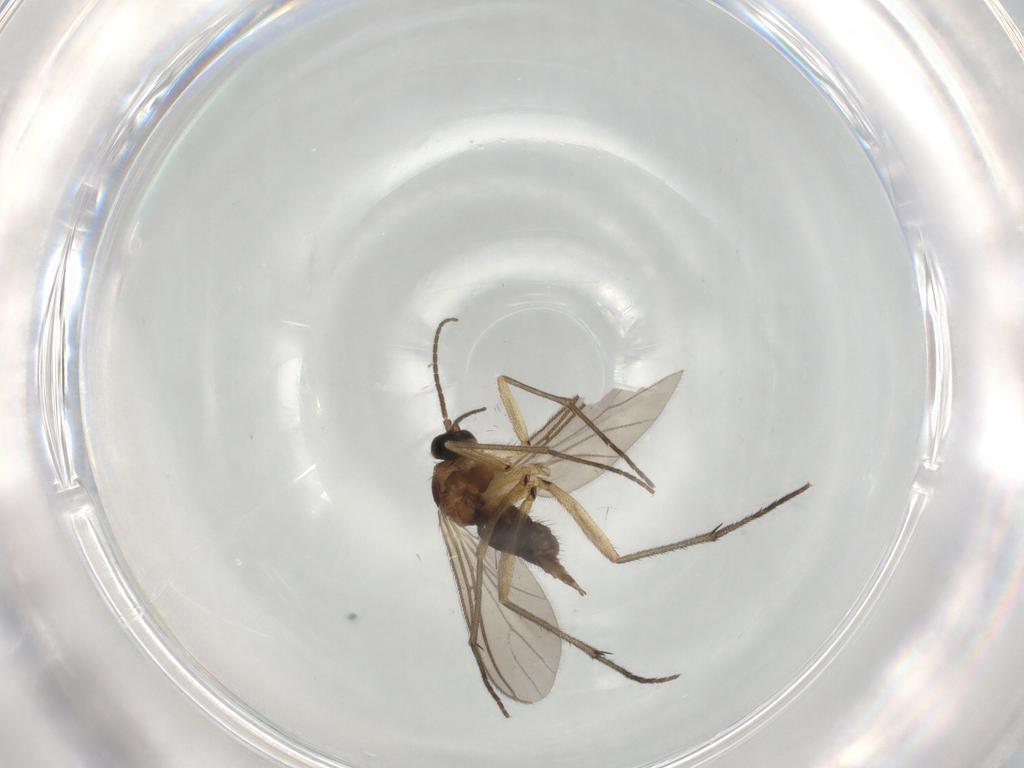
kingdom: Animalia
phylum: Arthropoda
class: Insecta
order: Diptera
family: Sciaridae
